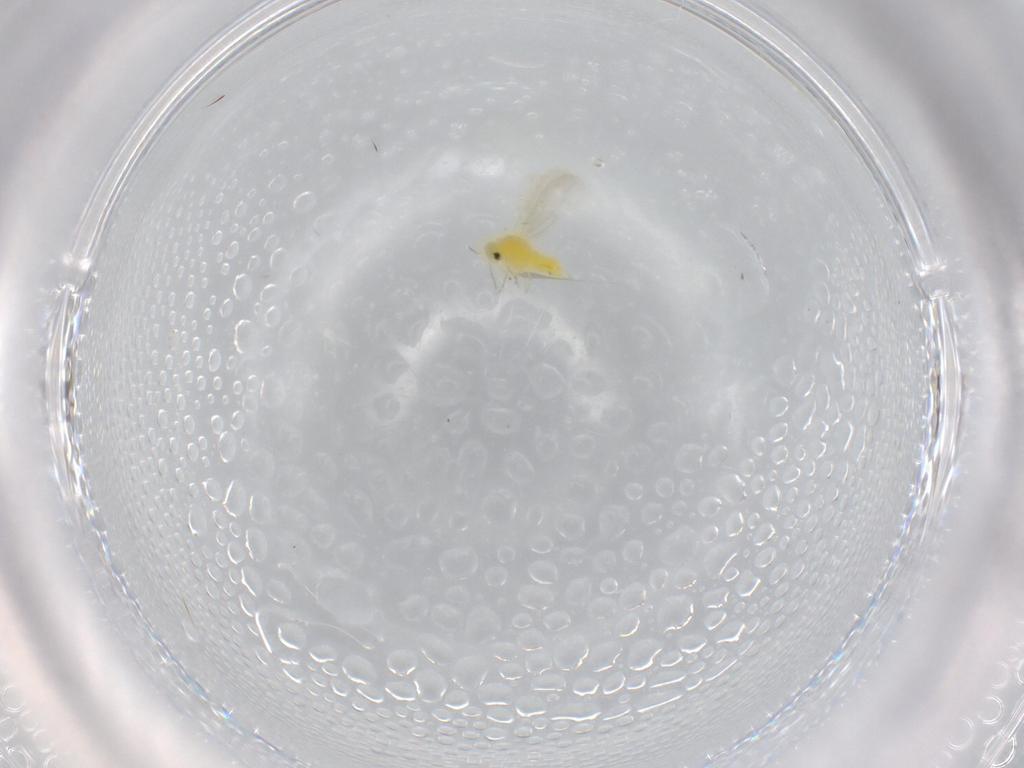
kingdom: Animalia
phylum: Arthropoda
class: Insecta
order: Hemiptera
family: Aleyrodidae
